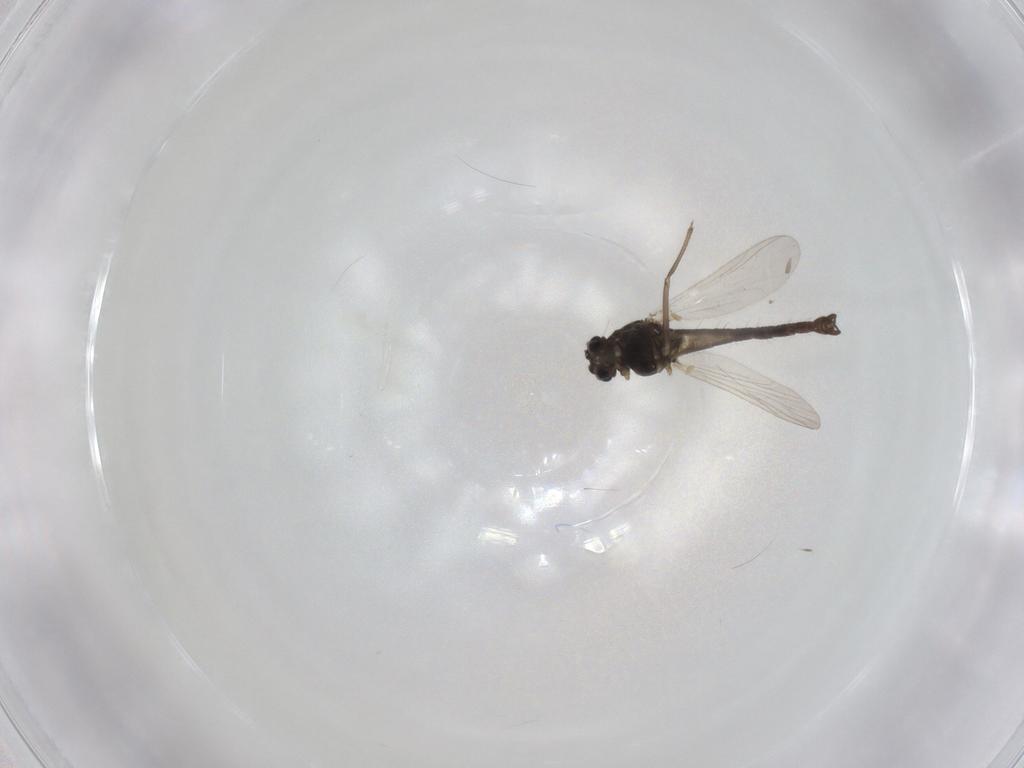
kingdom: Animalia
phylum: Arthropoda
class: Insecta
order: Diptera
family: Chironomidae
